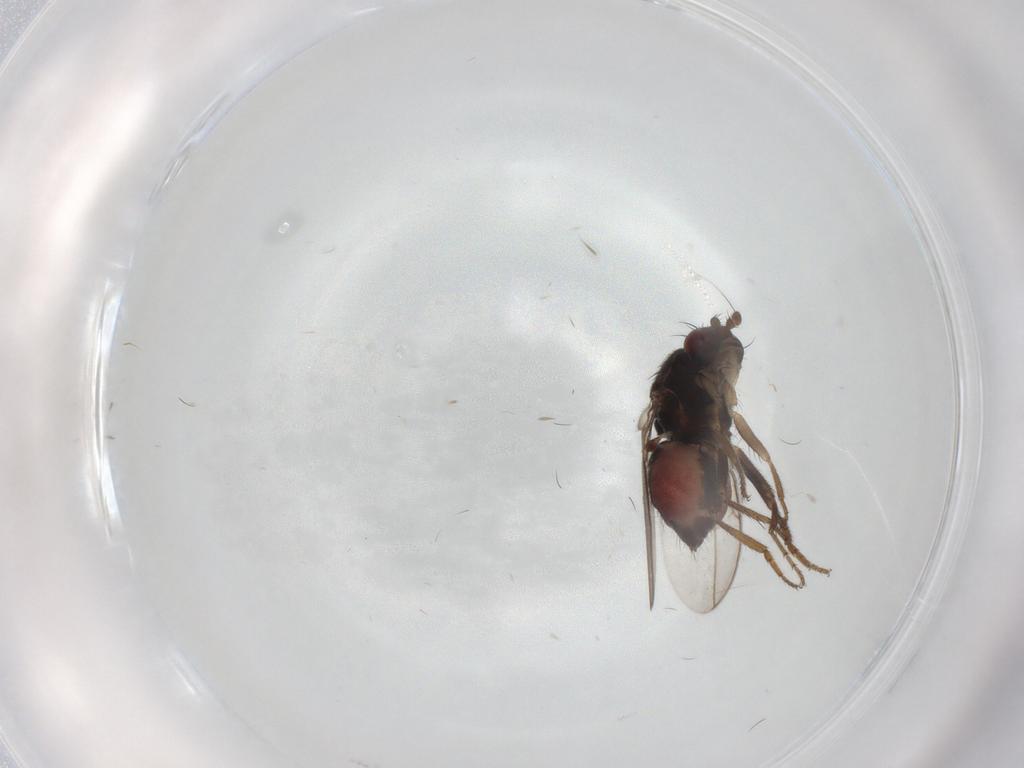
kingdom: Animalia
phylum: Arthropoda
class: Insecta
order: Diptera
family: Sphaeroceridae
